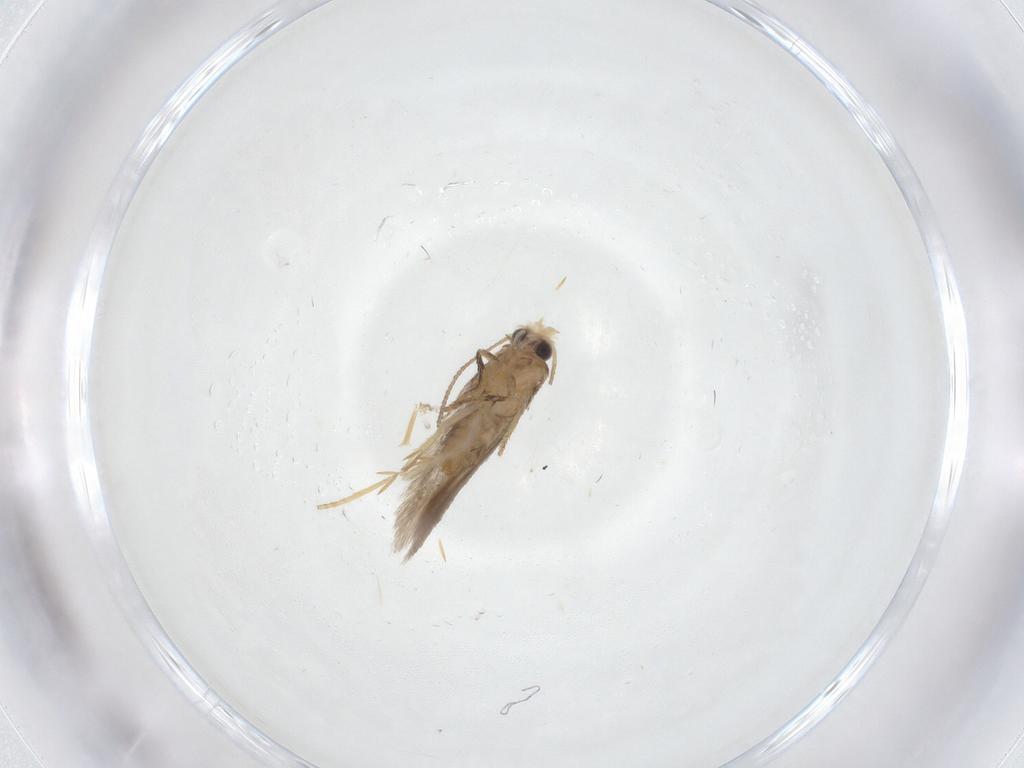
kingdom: Animalia
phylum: Arthropoda
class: Insecta
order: Lepidoptera
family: Nepticulidae
